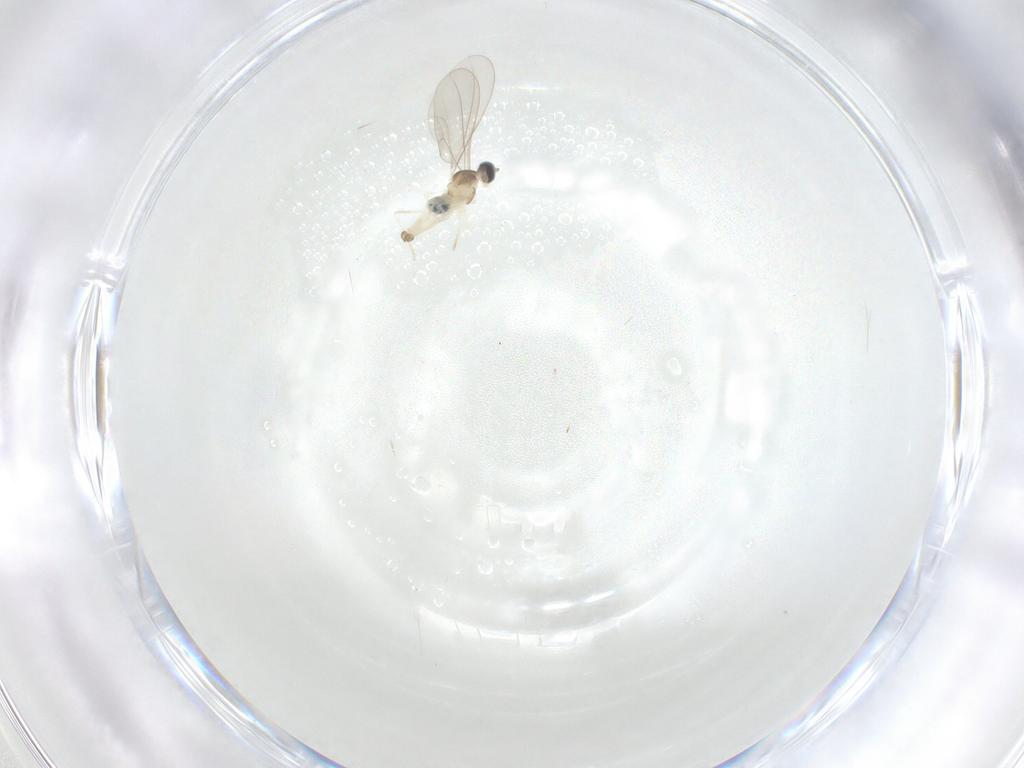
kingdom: Animalia
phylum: Arthropoda
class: Insecta
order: Diptera
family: Cecidomyiidae
